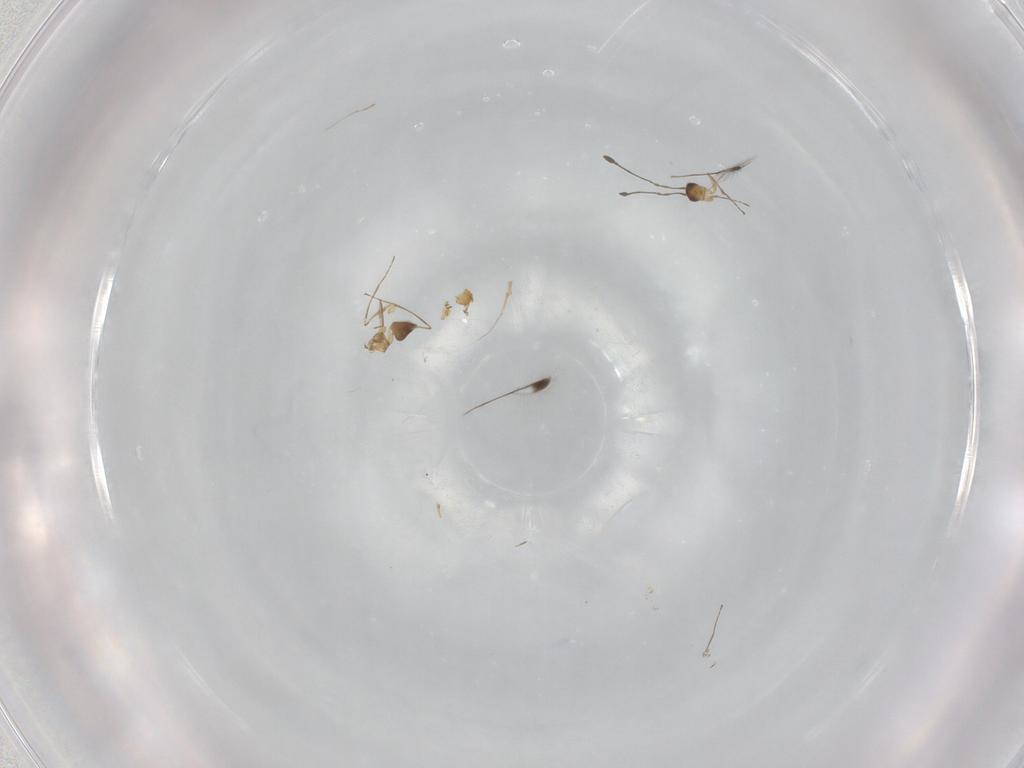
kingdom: Animalia
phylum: Arthropoda
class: Insecta
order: Hymenoptera
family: Mymaridae
